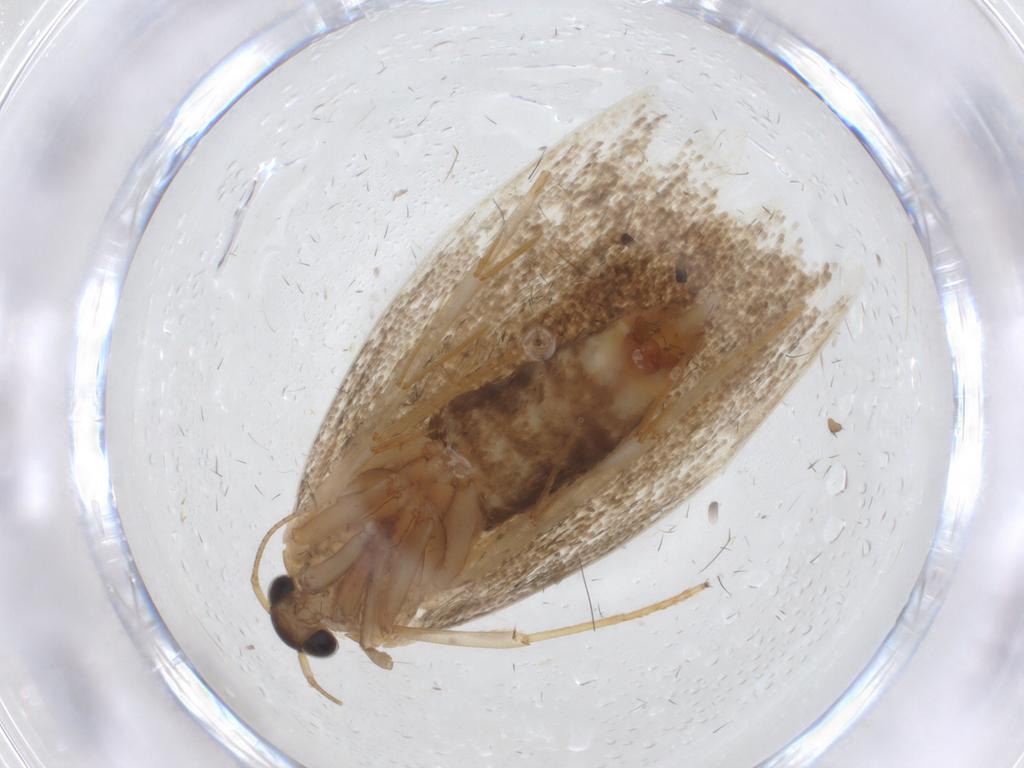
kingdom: Animalia
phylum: Arthropoda
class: Insecta
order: Lepidoptera
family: Oecophoridae
